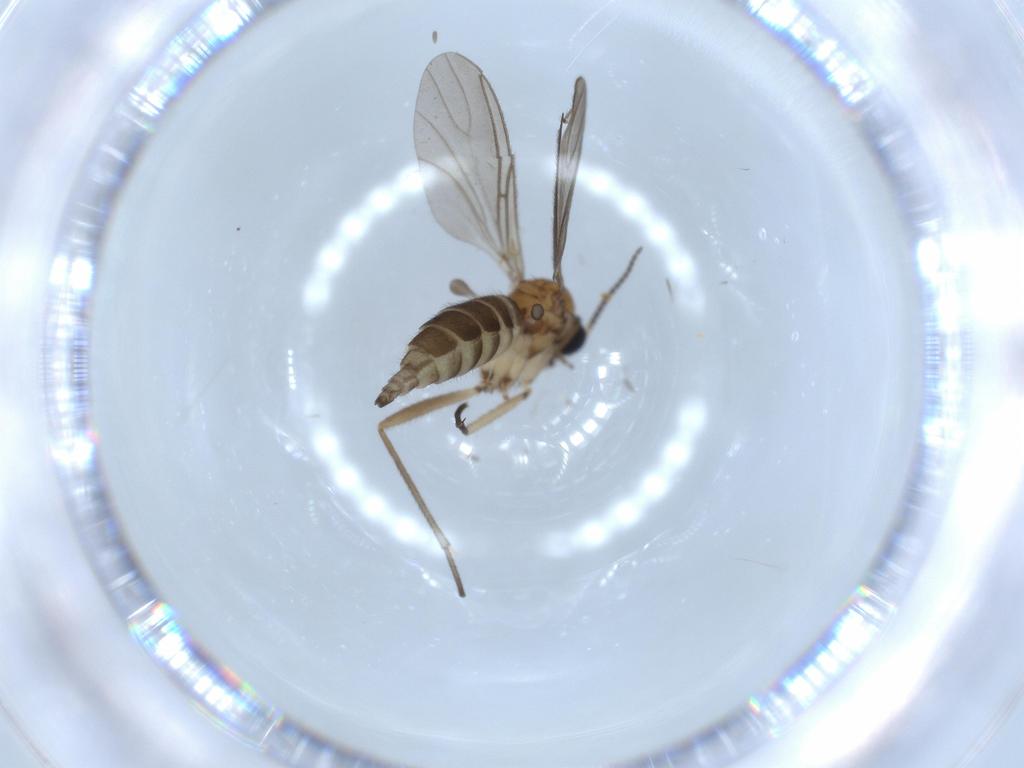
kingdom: Animalia
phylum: Arthropoda
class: Insecta
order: Diptera
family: Sciaridae
